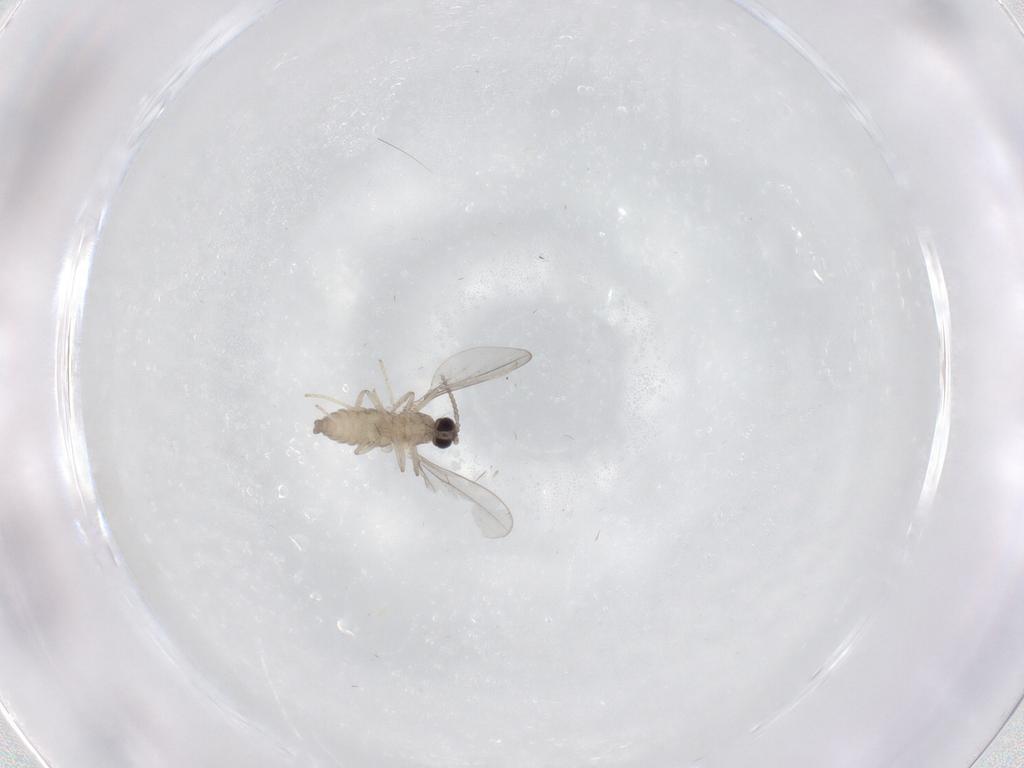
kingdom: Animalia
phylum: Arthropoda
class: Insecta
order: Diptera
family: Cecidomyiidae
